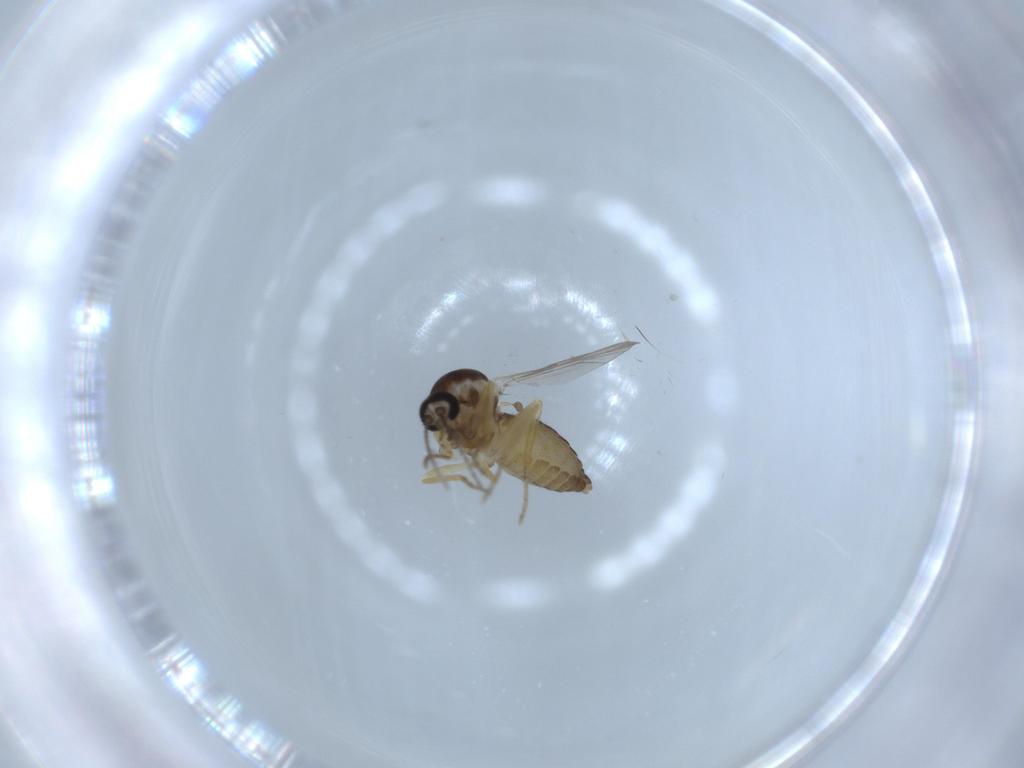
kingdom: Animalia
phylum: Arthropoda
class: Insecta
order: Diptera
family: Ceratopogonidae
